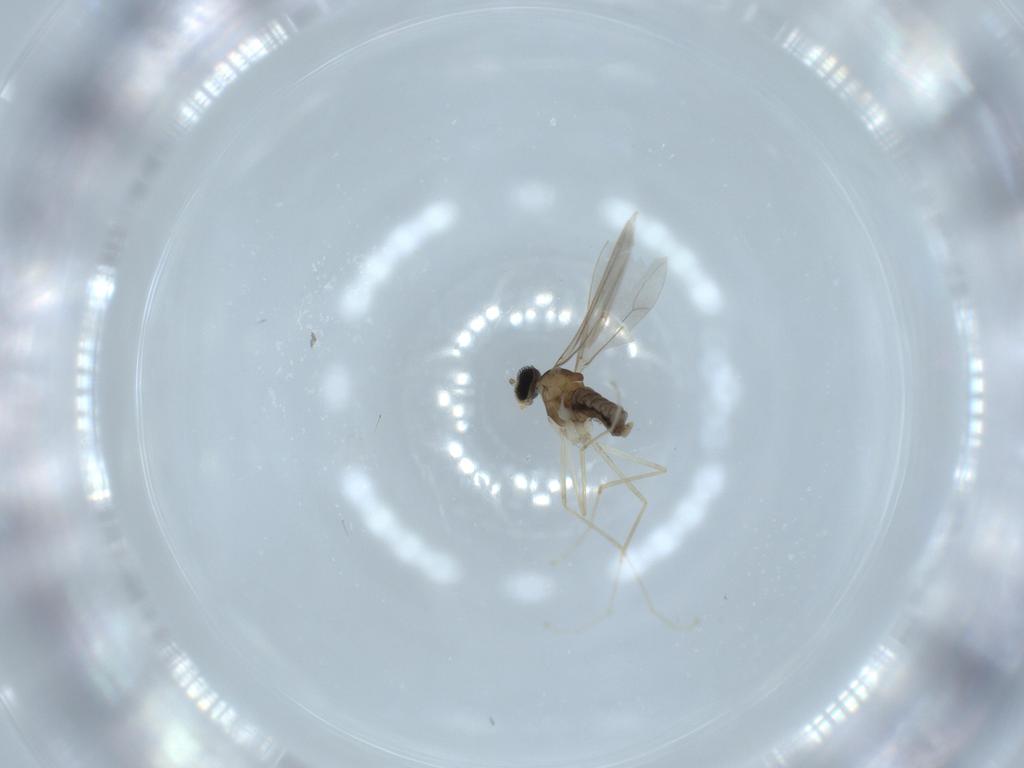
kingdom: Animalia
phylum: Arthropoda
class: Insecta
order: Diptera
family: Cecidomyiidae
